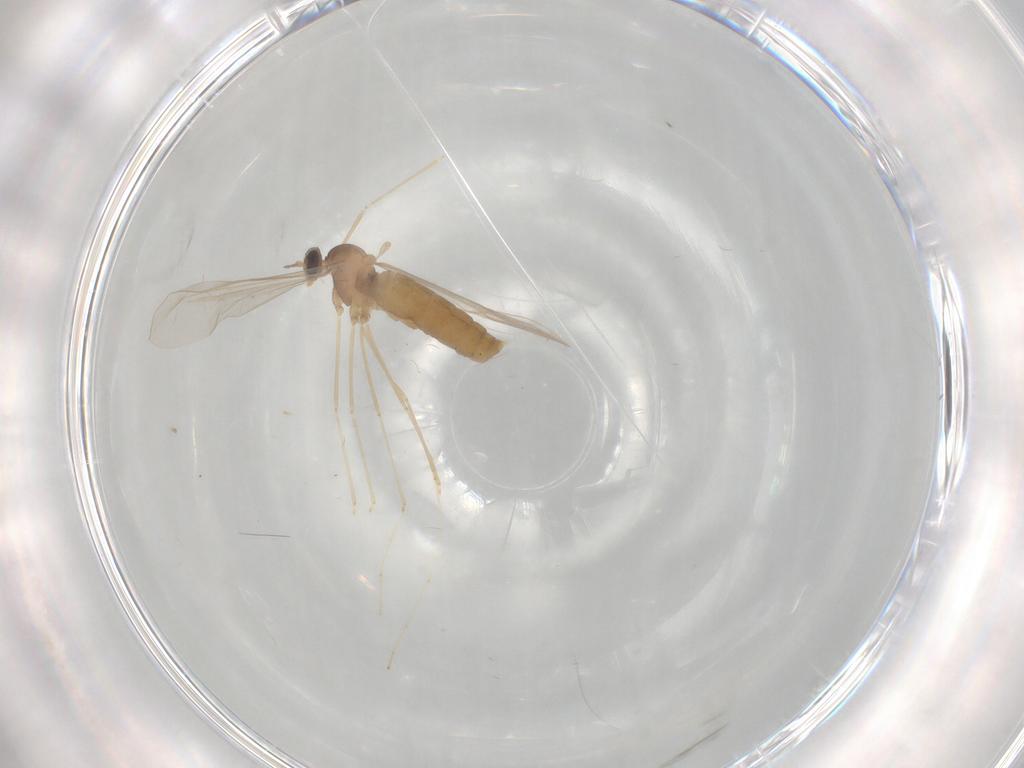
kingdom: Animalia
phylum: Arthropoda
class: Insecta
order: Diptera
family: Cecidomyiidae
